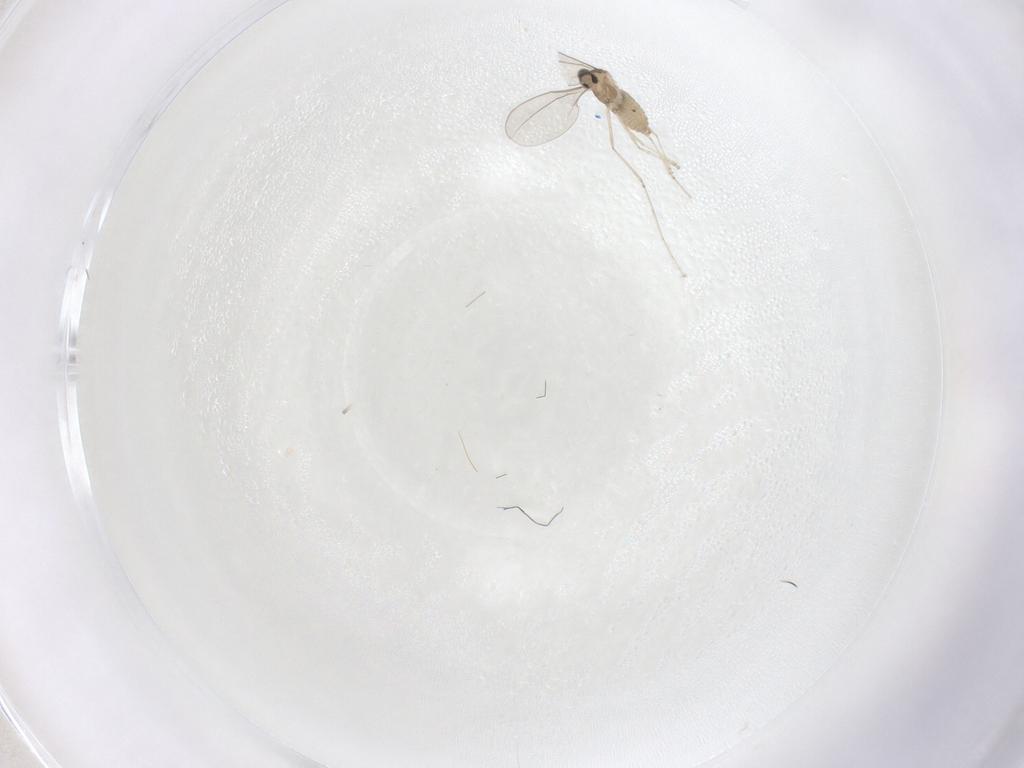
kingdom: Animalia
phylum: Arthropoda
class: Insecta
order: Diptera
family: Cecidomyiidae
